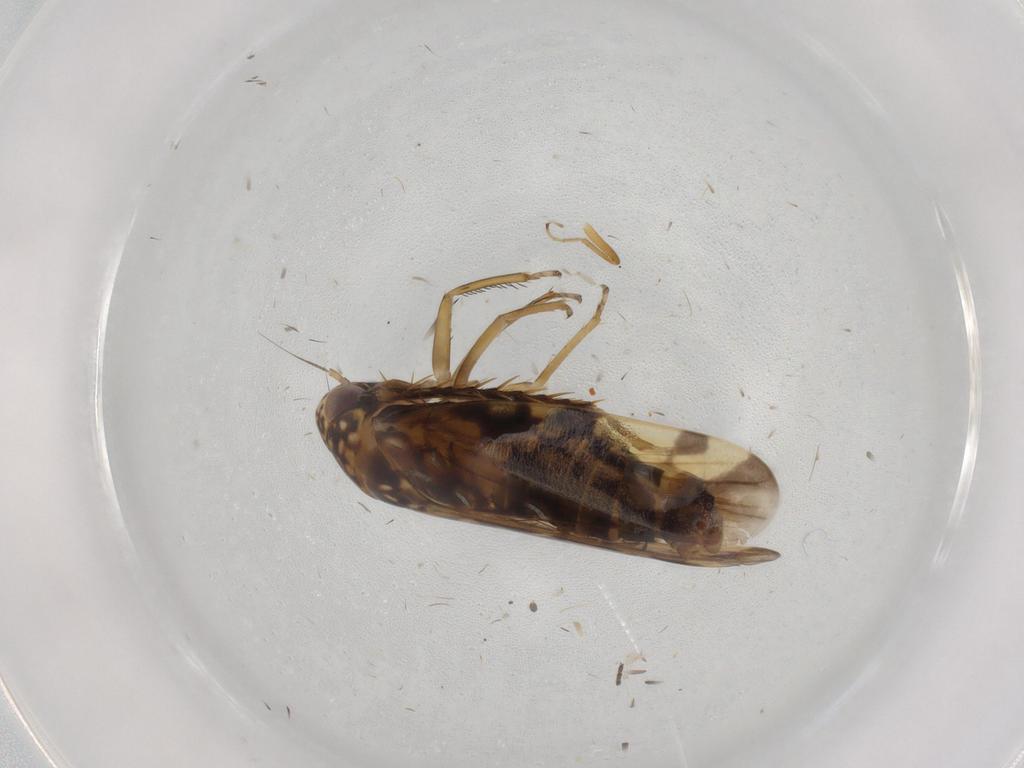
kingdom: Animalia
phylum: Arthropoda
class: Insecta
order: Hemiptera
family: Cicadellidae
